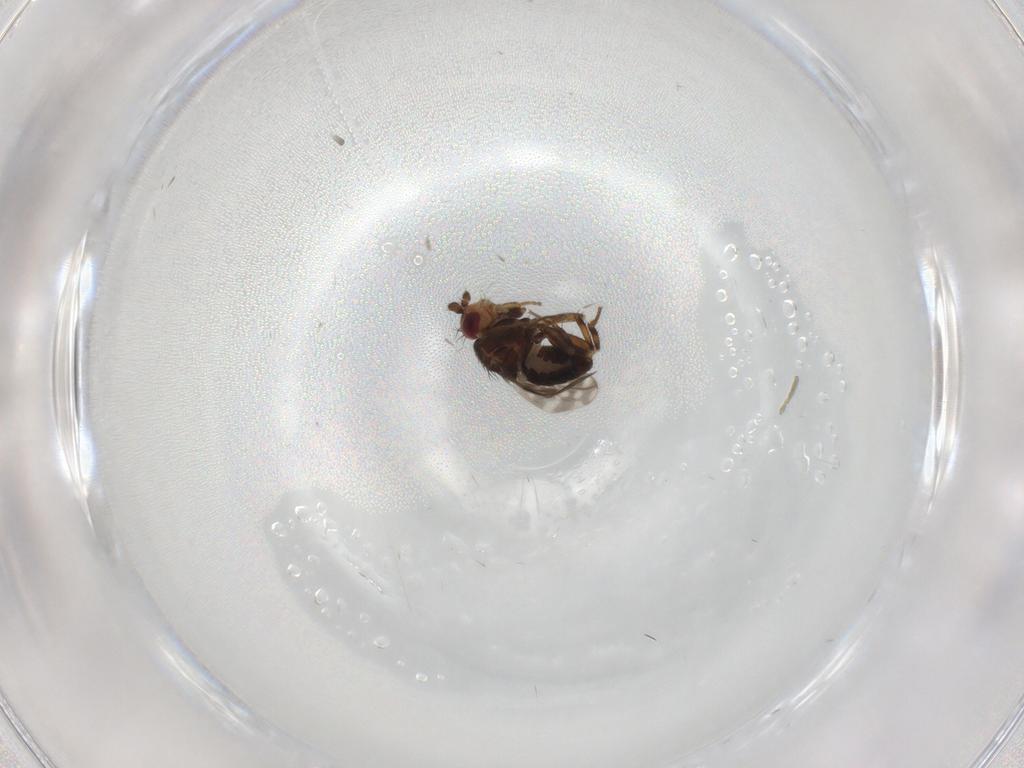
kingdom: Animalia
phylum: Arthropoda
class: Insecta
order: Diptera
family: Sphaeroceridae
